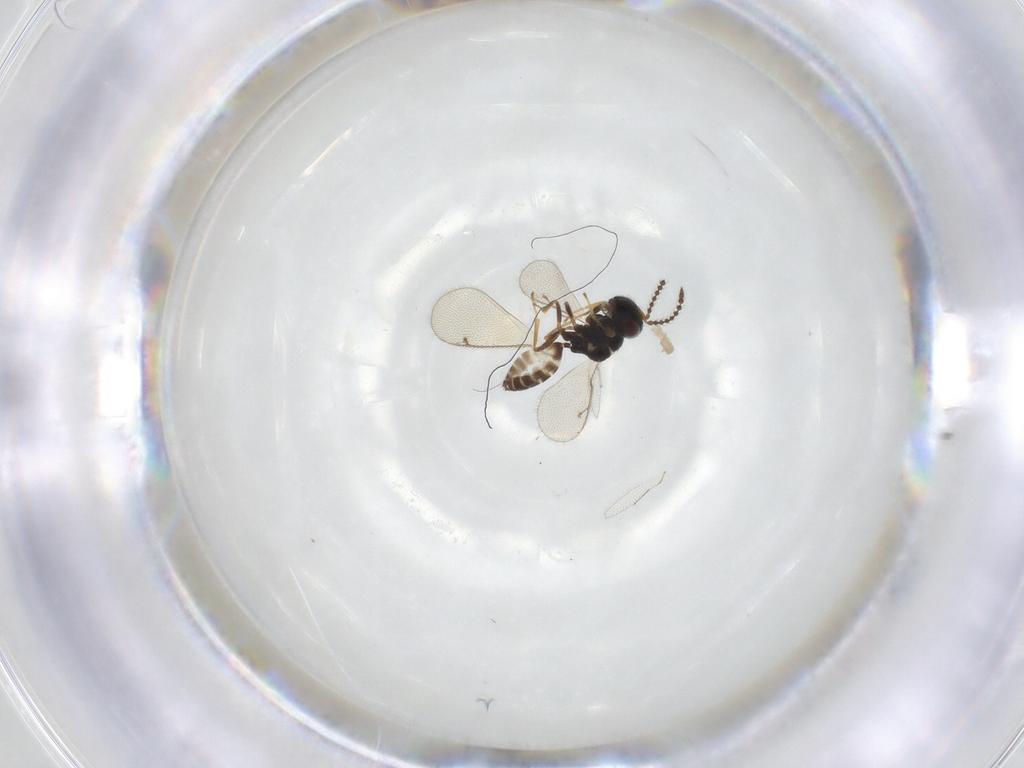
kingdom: Animalia
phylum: Arthropoda
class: Insecta
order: Hymenoptera
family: Pteromalidae
